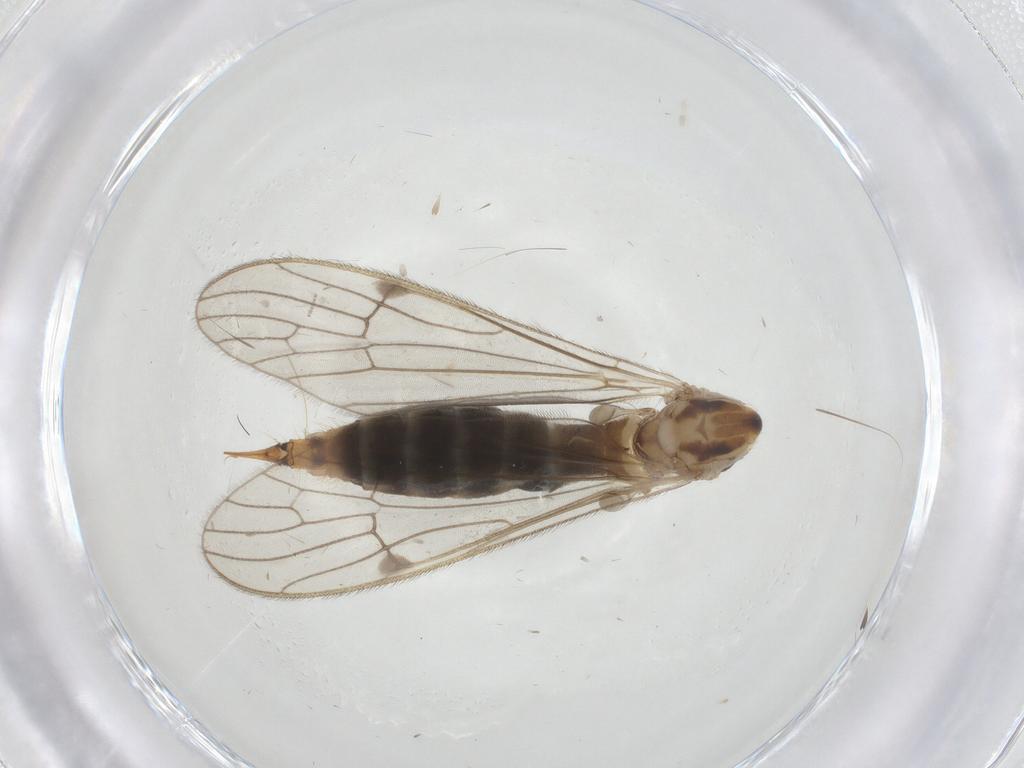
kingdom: Animalia
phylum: Arthropoda
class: Insecta
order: Diptera
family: Limoniidae
